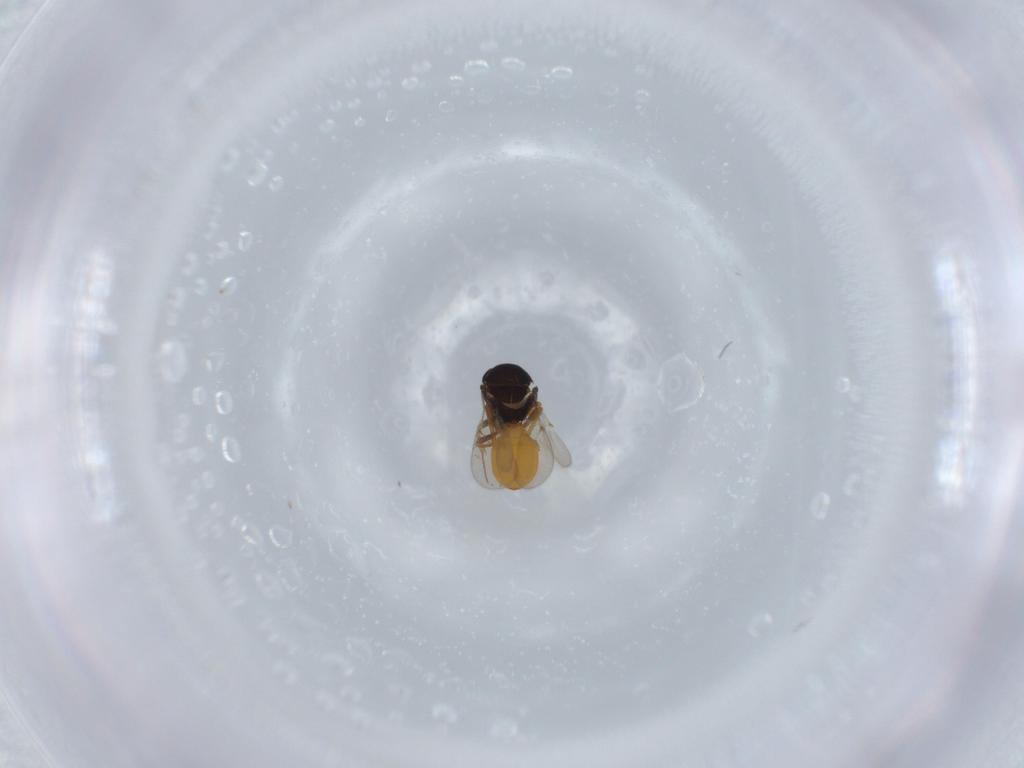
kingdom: Animalia
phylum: Arthropoda
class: Insecta
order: Hymenoptera
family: Scelionidae
